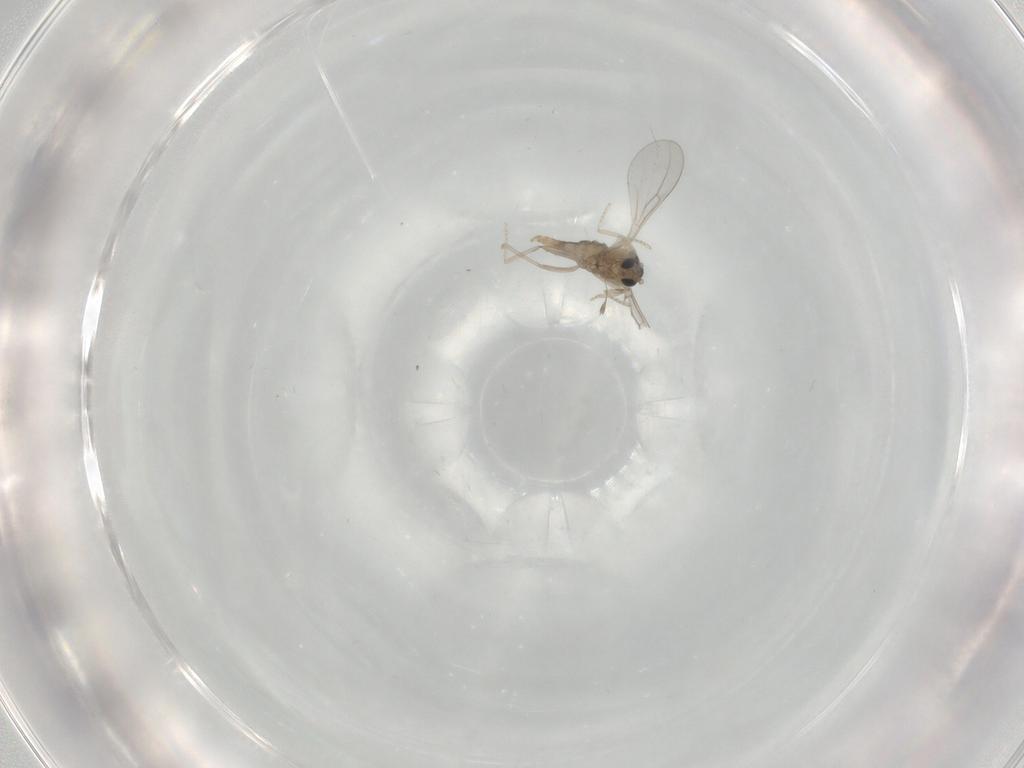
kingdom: Animalia
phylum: Arthropoda
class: Insecta
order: Diptera
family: Cecidomyiidae
